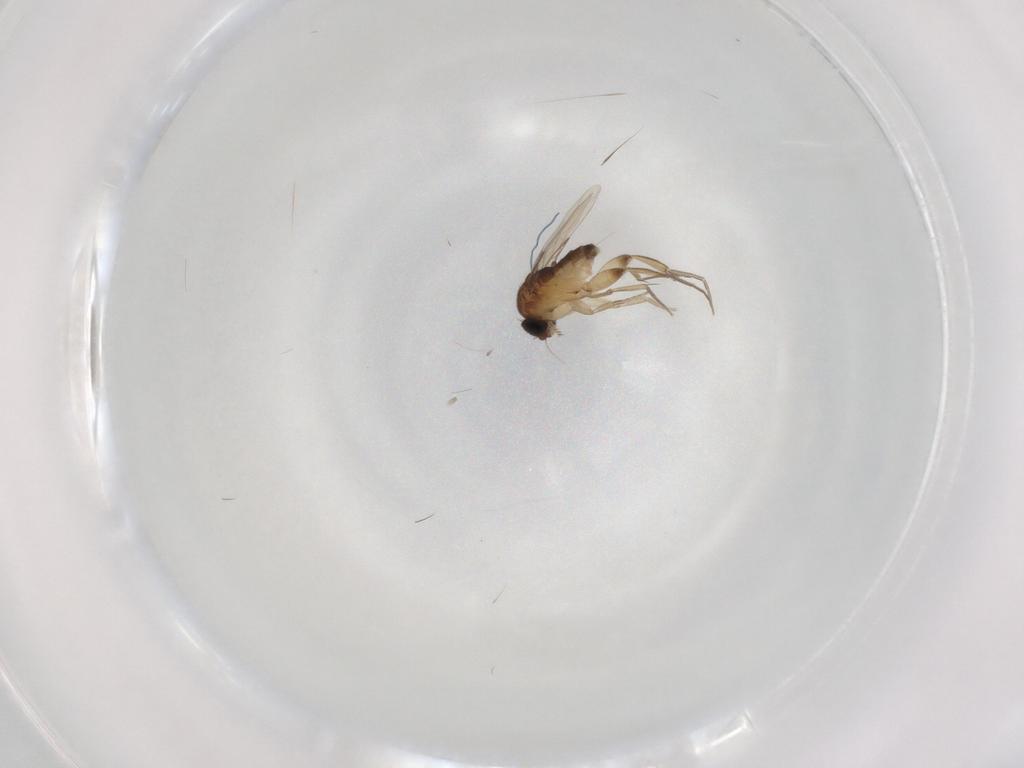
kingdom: Animalia
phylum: Arthropoda
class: Insecta
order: Diptera
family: Phoridae
